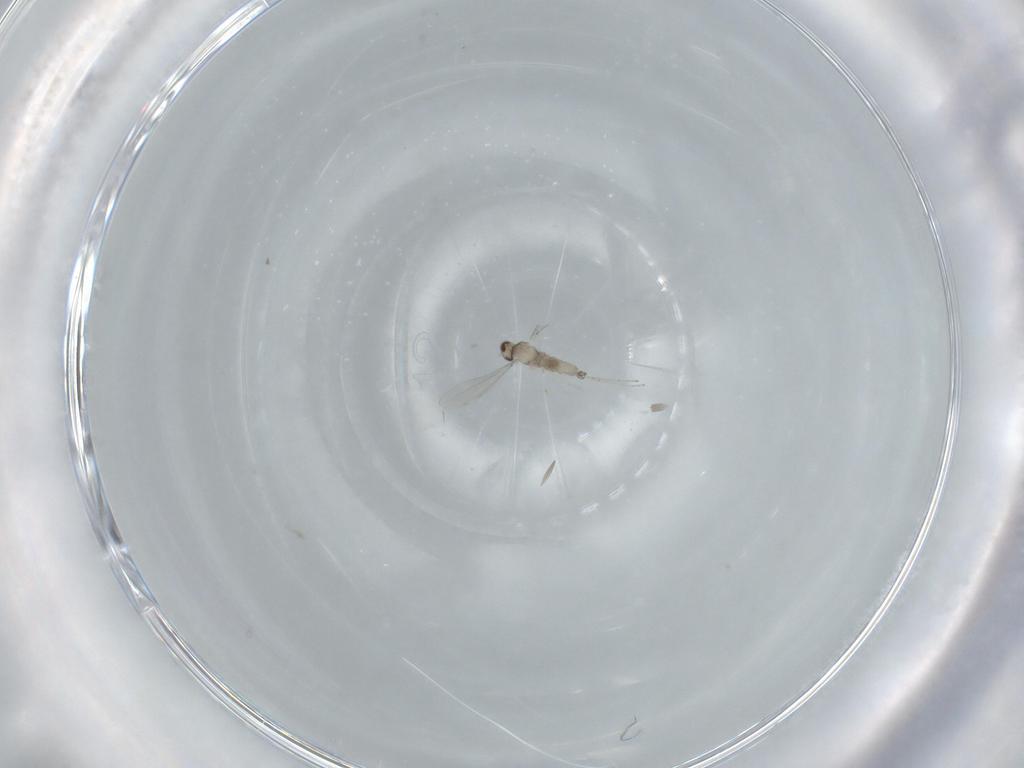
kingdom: Animalia
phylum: Arthropoda
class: Insecta
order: Diptera
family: Cecidomyiidae
